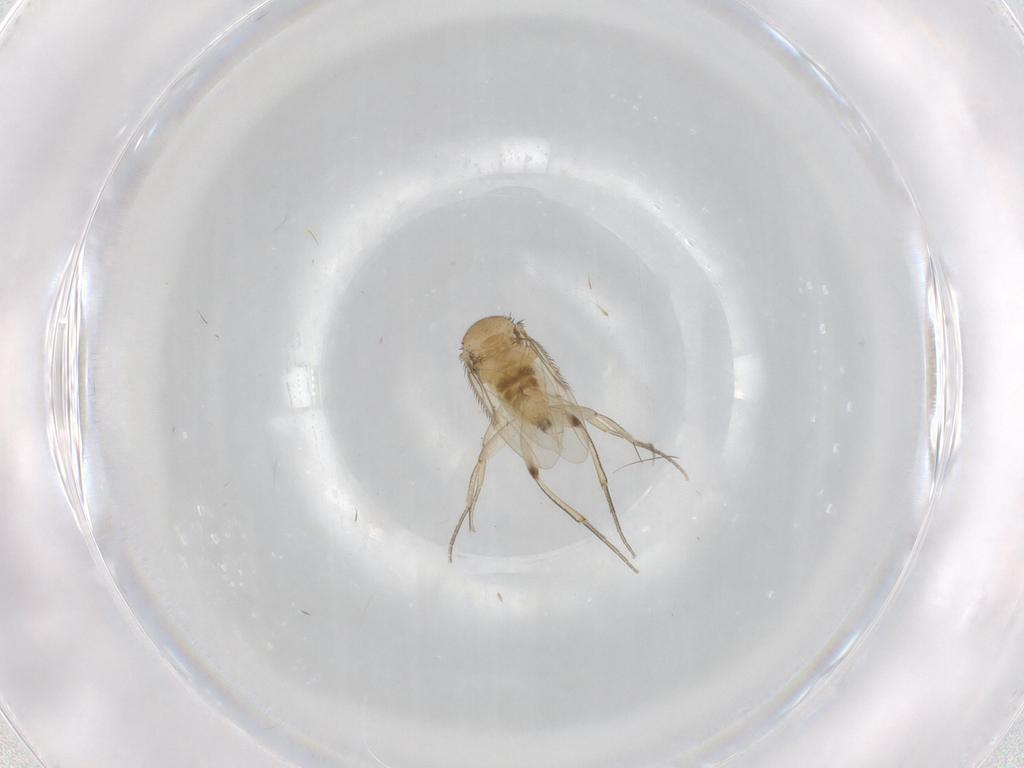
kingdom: Animalia
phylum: Arthropoda
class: Insecta
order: Diptera
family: Phoridae
